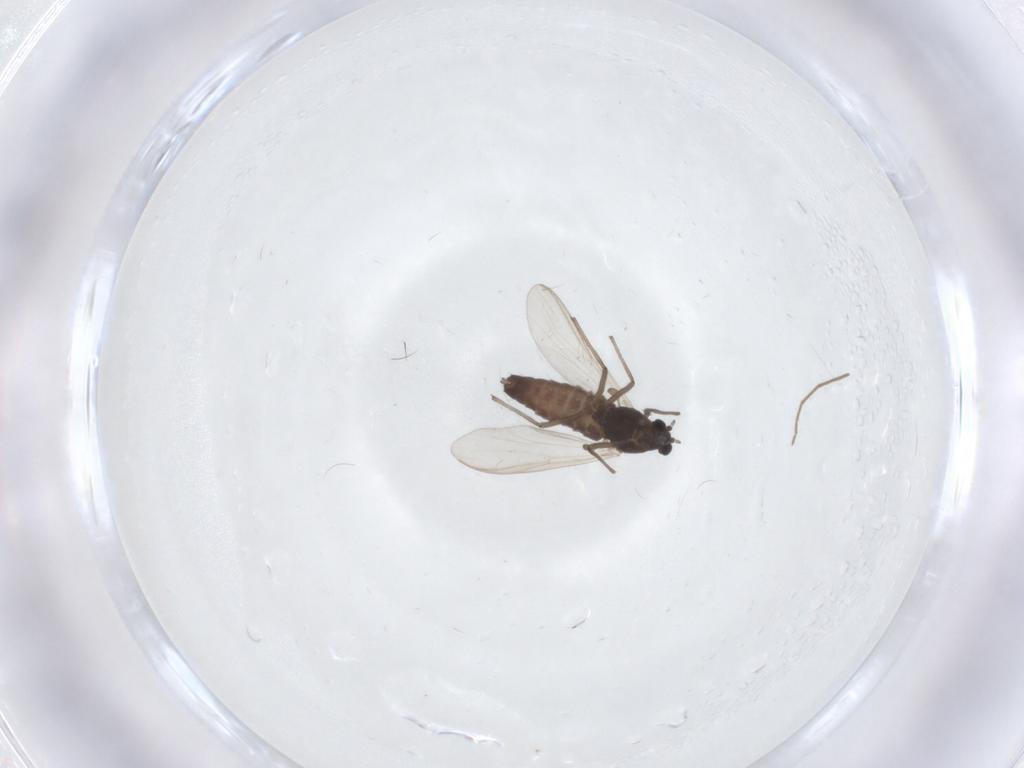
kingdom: Animalia
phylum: Arthropoda
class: Insecta
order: Diptera
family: Chironomidae
